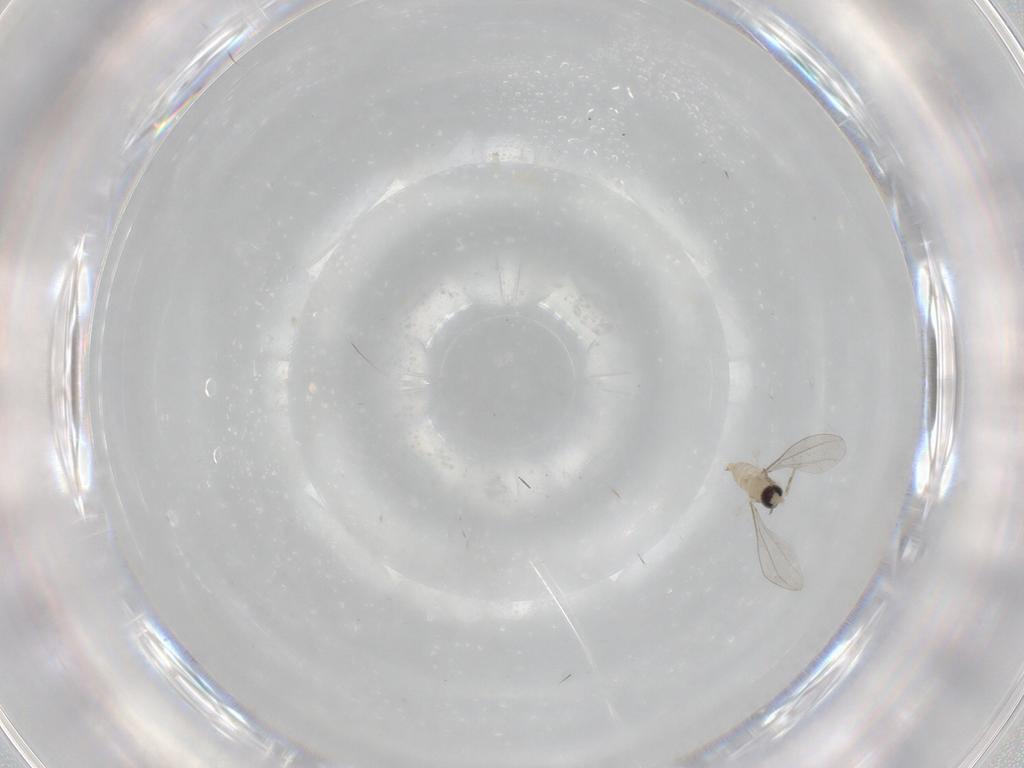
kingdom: Animalia
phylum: Arthropoda
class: Insecta
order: Diptera
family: Cecidomyiidae
